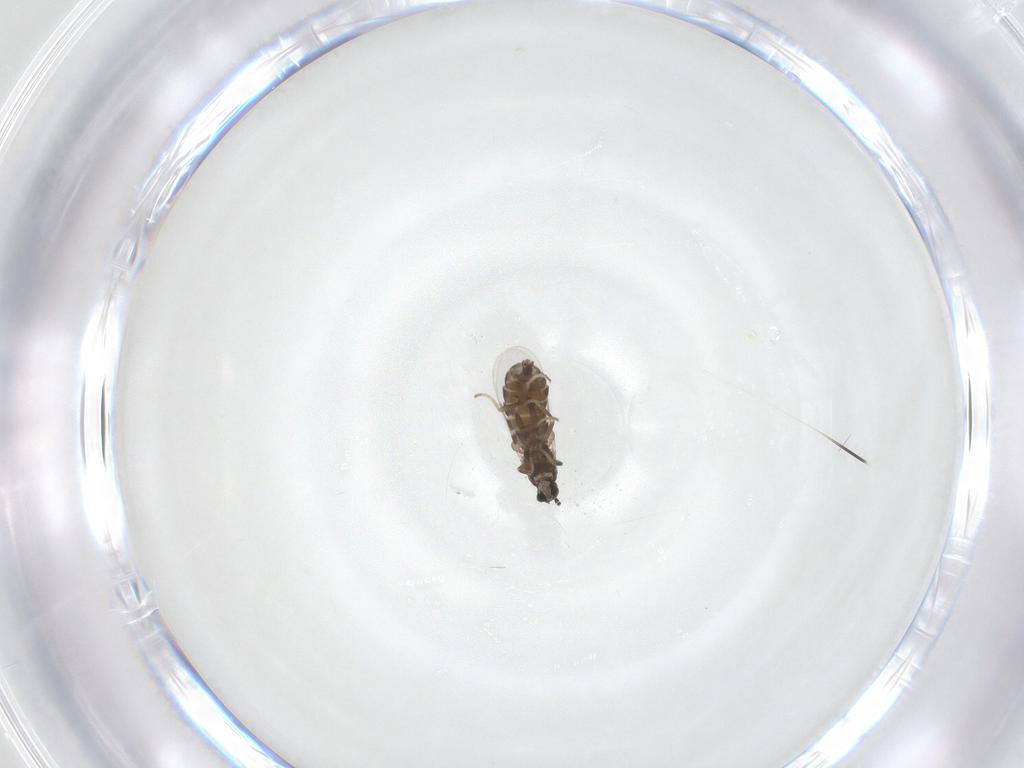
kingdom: Animalia
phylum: Arthropoda
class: Insecta
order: Diptera
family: Scatopsidae
